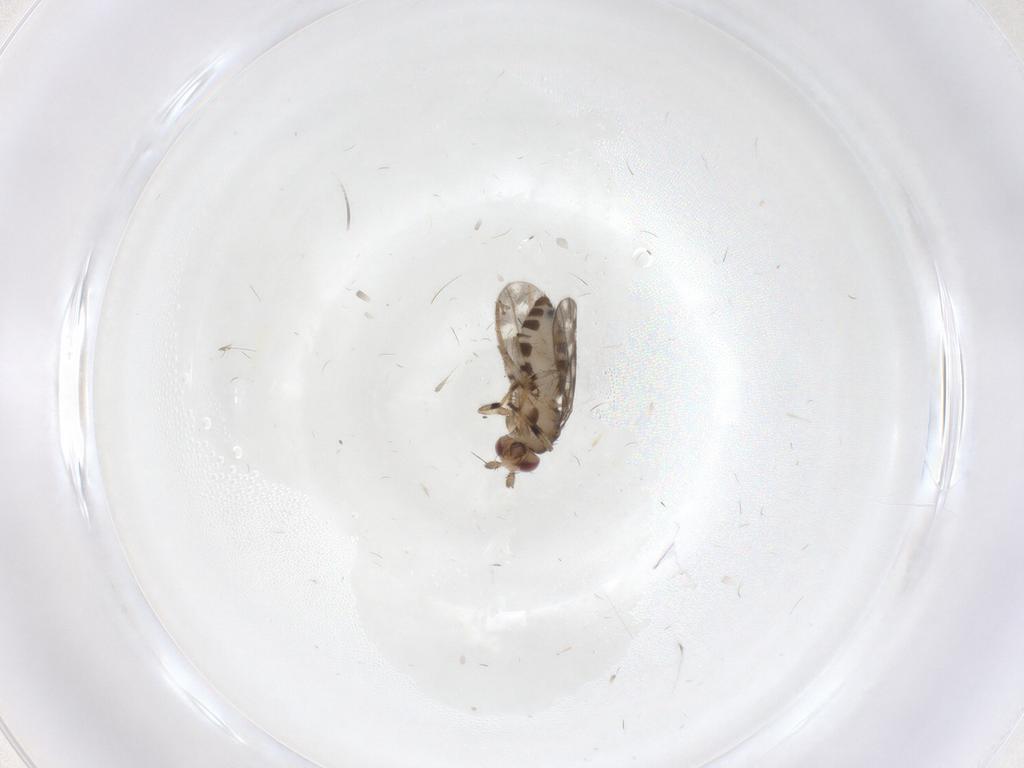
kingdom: Animalia
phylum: Arthropoda
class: Insecta
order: Diptera
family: Sphaeroceridae
